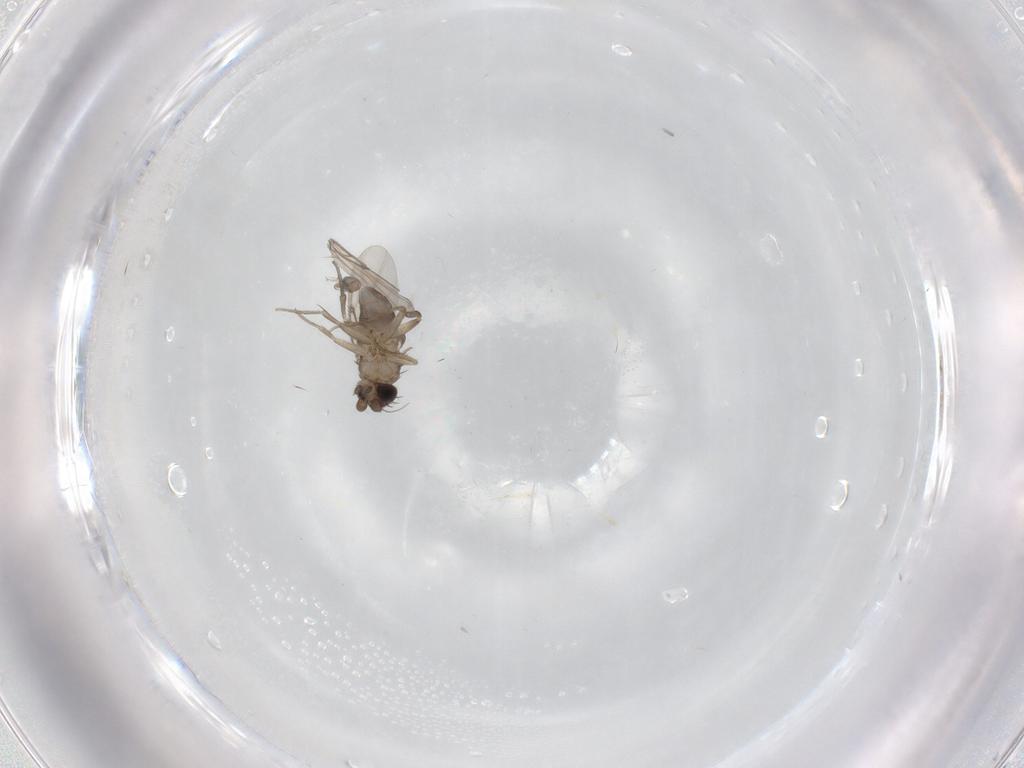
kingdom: Animalia
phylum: Arthropoda
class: Insecta
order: Diptera
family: Phoridae
